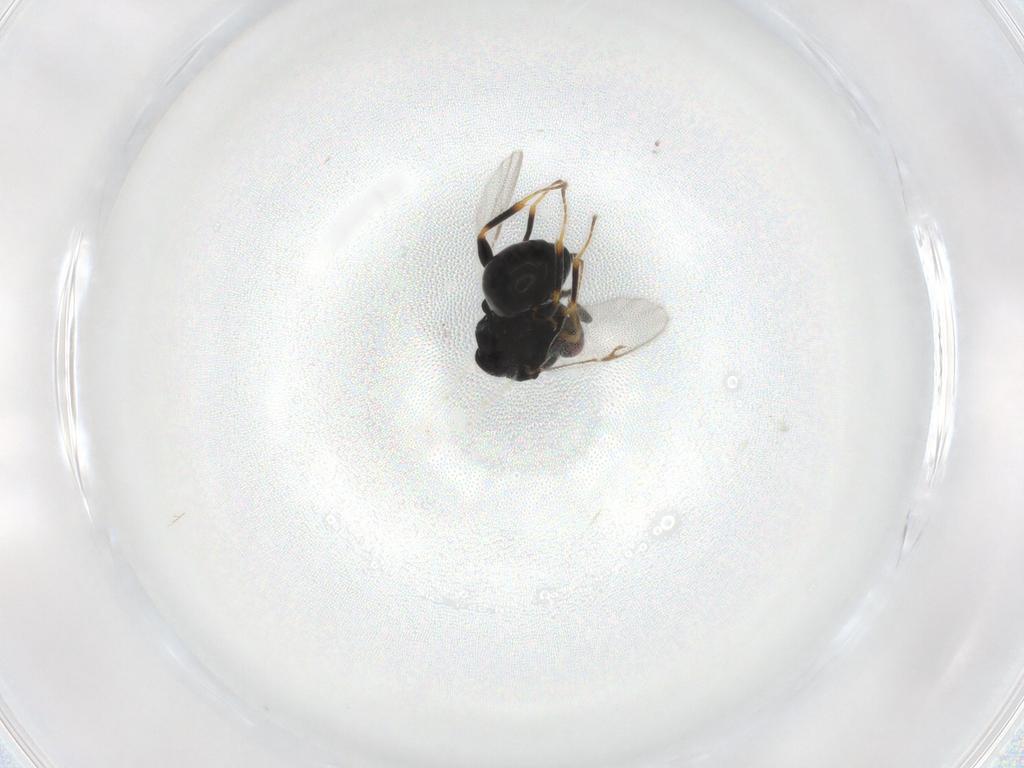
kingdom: Animalia
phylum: Arthropoda
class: Insecta
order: Hymenoptera
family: Eurytomidae
